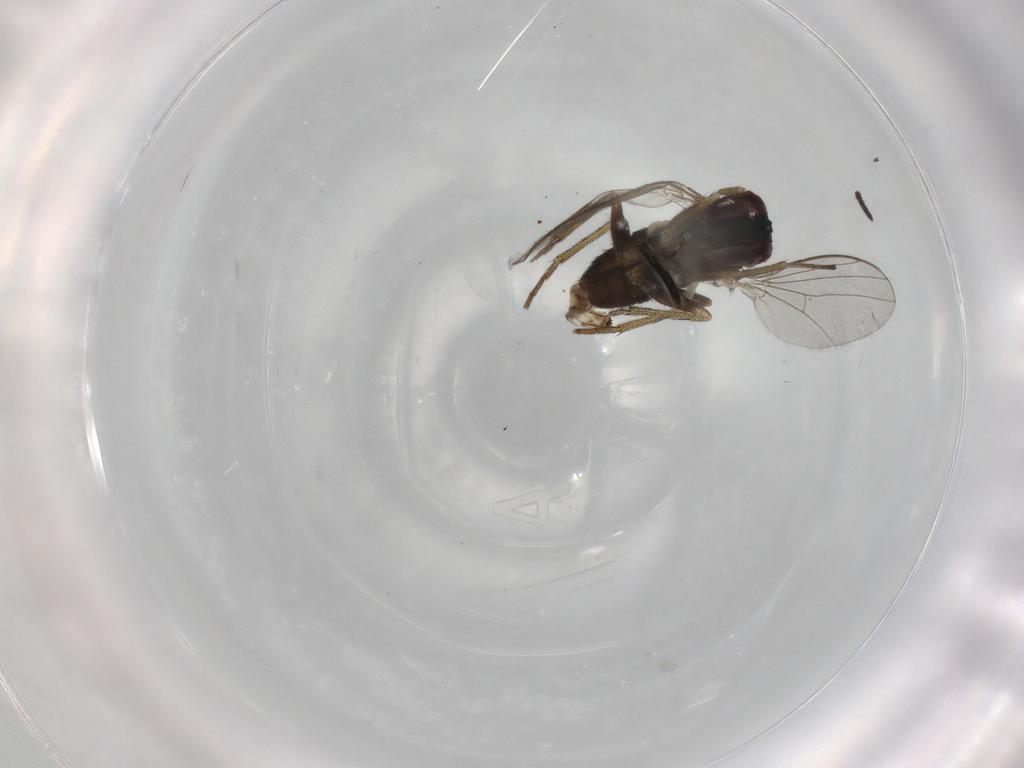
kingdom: Animalia
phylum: Arthropoda
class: Insecta
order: Diptera
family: Dolichopodidae
